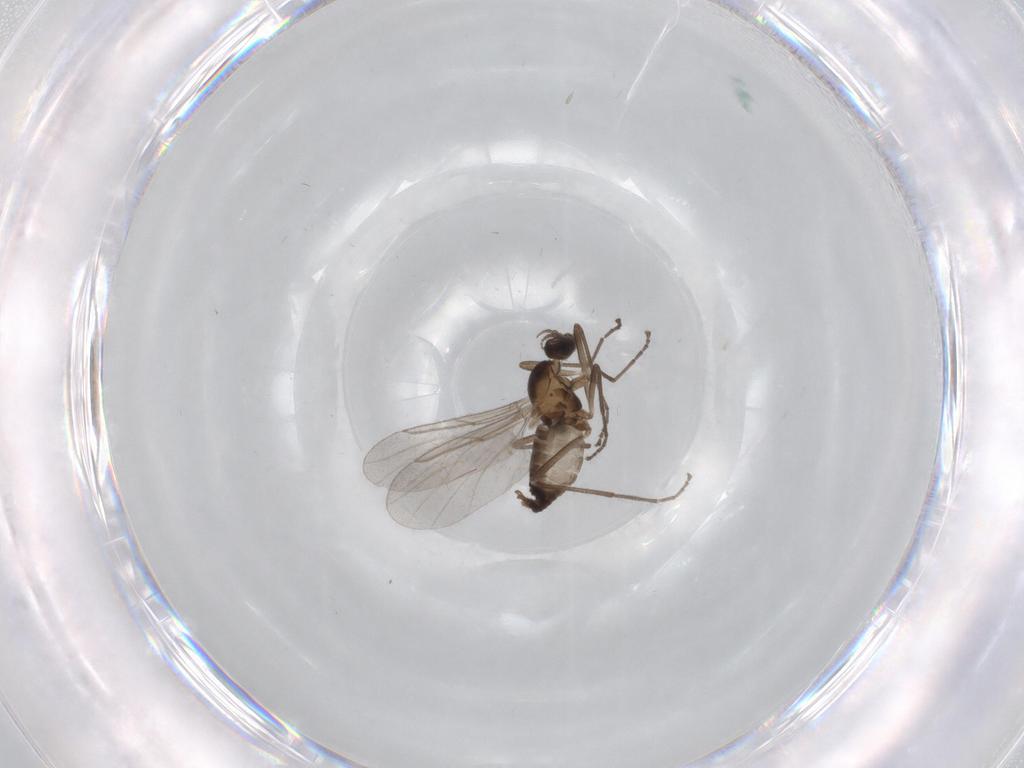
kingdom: Animalia
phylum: Arthropoda
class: Insecta
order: Diptera
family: Cecidomyiidae
